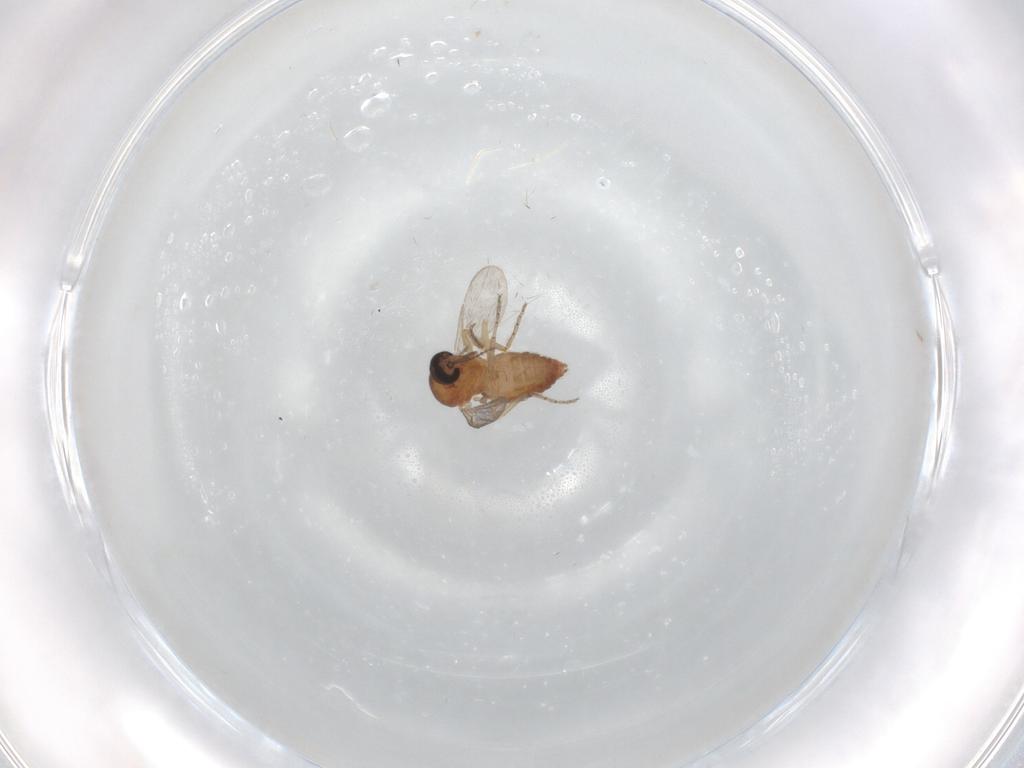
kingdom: Animalia
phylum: Arthropoda
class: Insecta
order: Diptera
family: Ceratopogonidae
